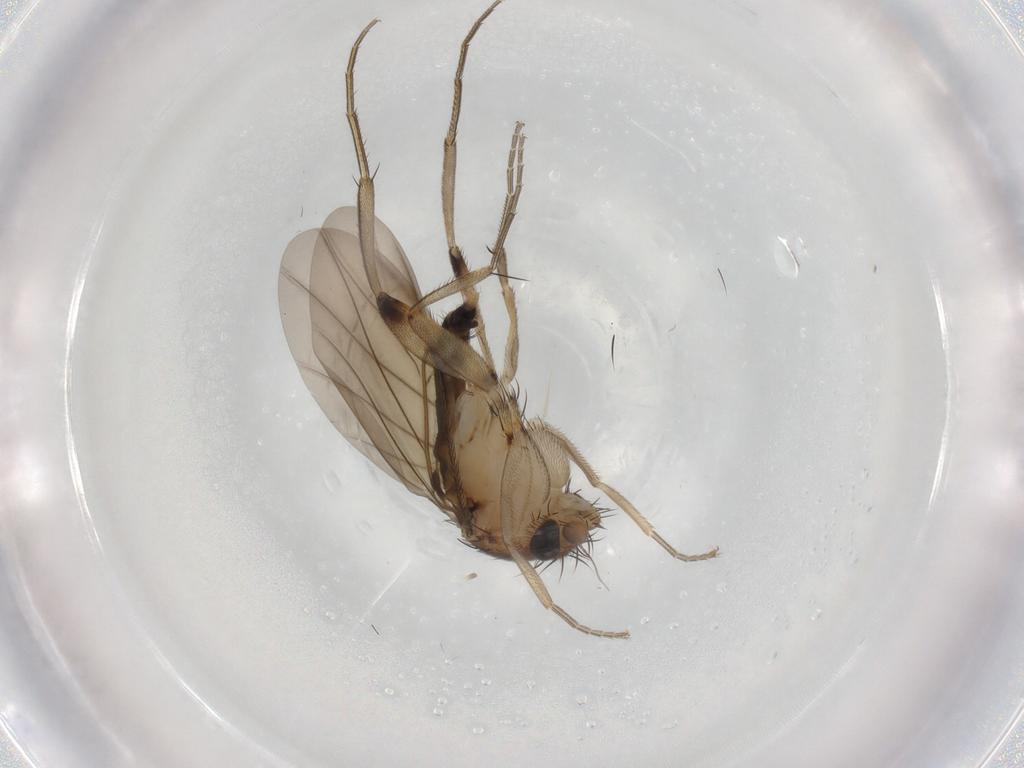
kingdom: Animalia
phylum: Arthropoda
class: Insecta
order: Diptera
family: Phoridae
